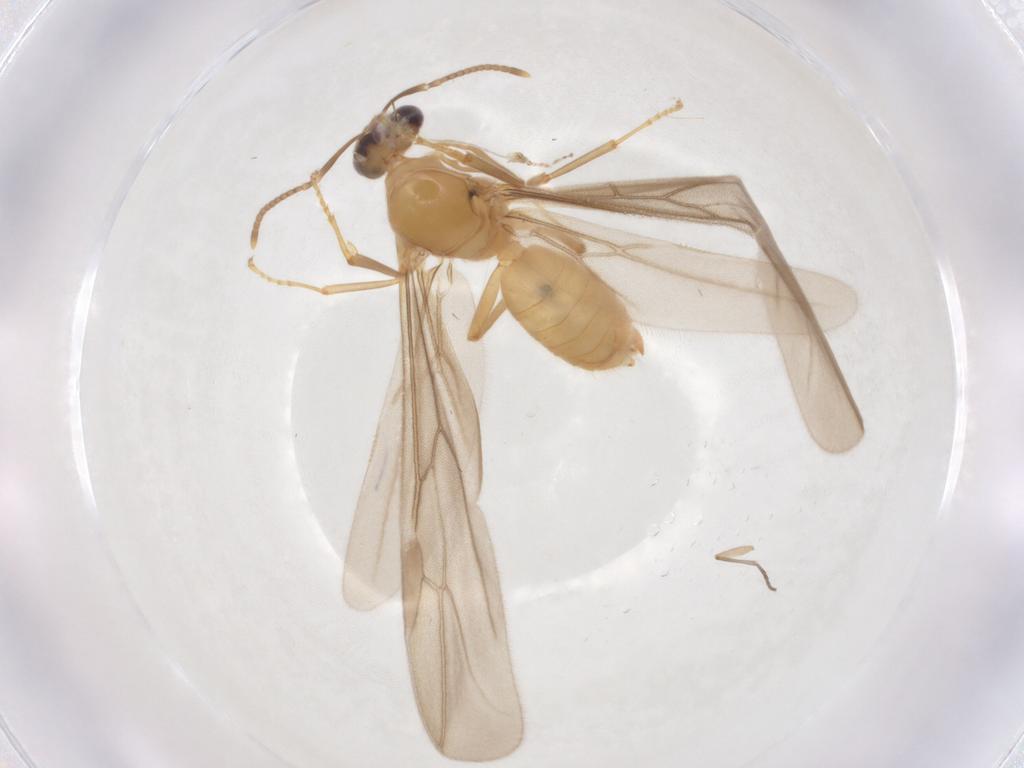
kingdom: Animalia
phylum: Arthropoda
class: Insecta
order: Hymenoptera
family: Formicidae
